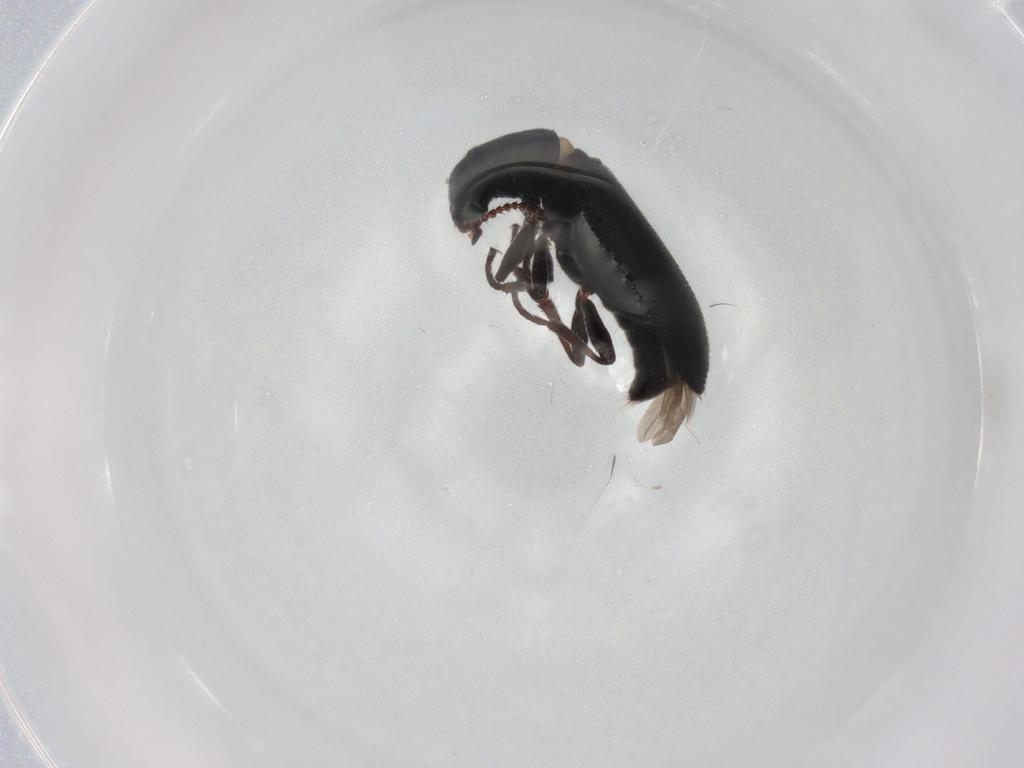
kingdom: Animalia
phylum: Arthropoda
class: Insecta
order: Coleoptera
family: Melyridae
